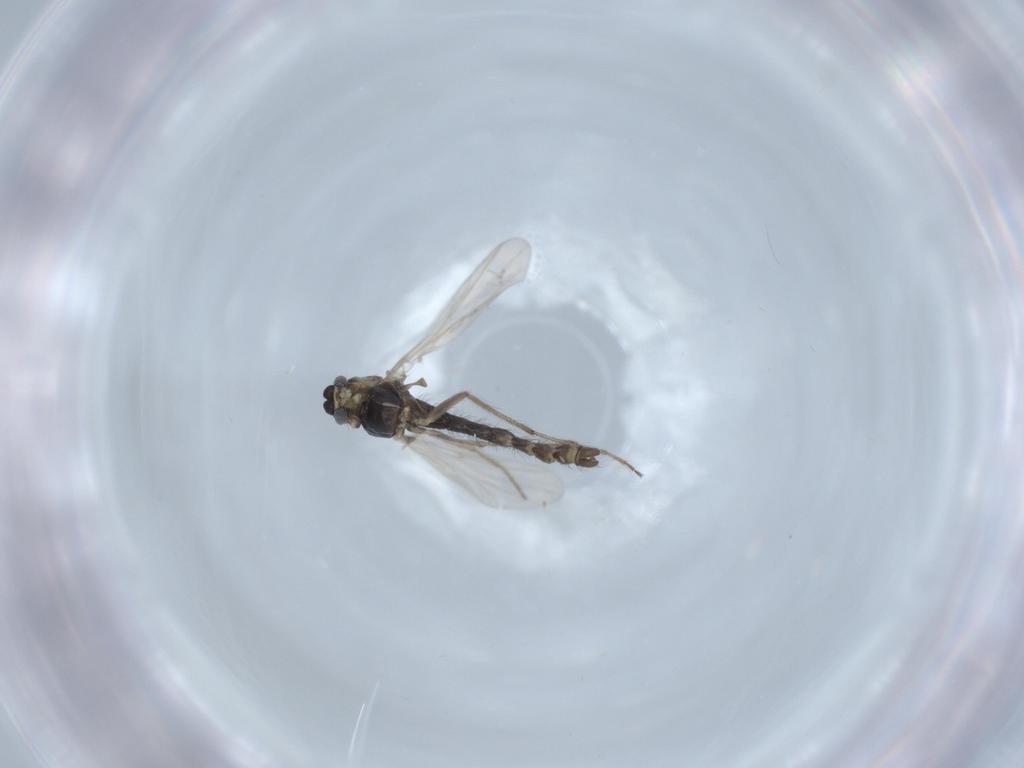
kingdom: Animalia
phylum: Arthropoda
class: Insecta
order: Diptera
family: Chironomidae
